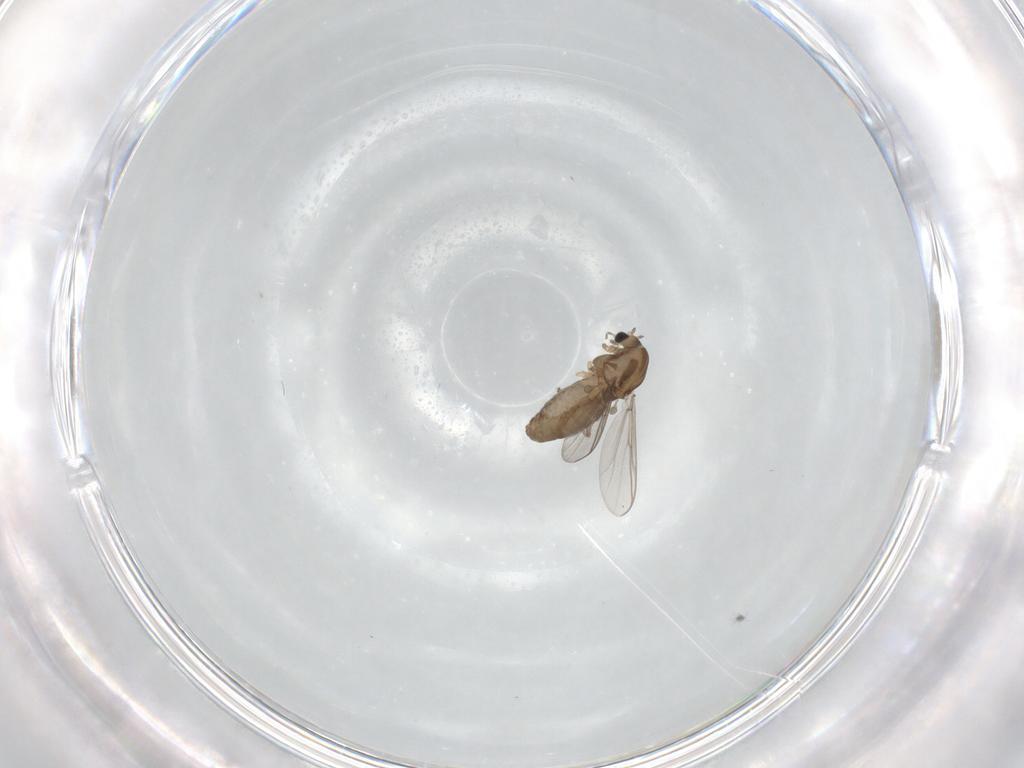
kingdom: Animalia
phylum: Arthropoda
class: Insecta
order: Diptera
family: Chironomidae
